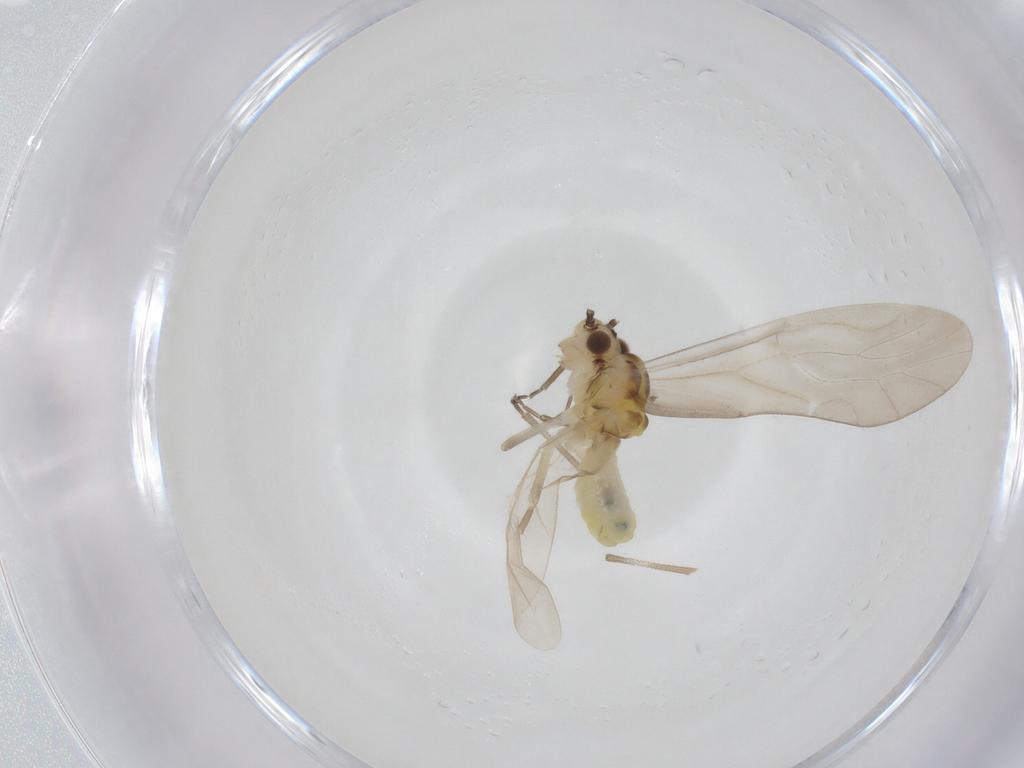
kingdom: Animalia
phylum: Arthropoda
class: Insecta
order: Psocodea
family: Caeciliusidae
